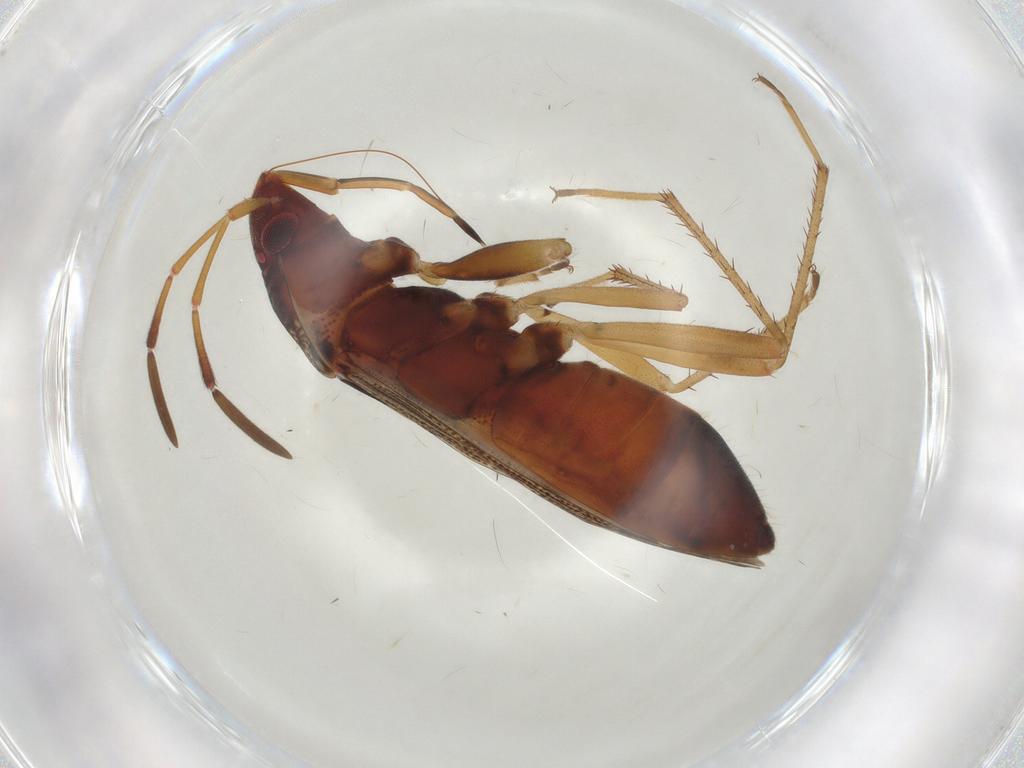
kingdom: Animalia
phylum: Arthropoda
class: Insecta
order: Hemiptera
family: Rhyparochromidae
